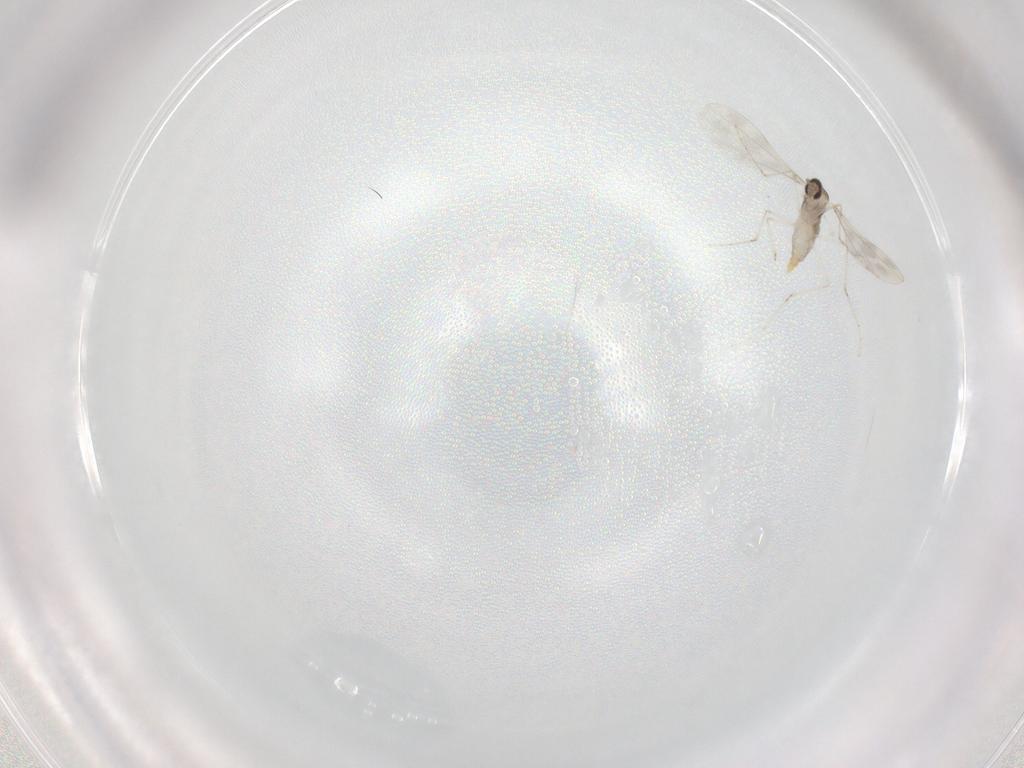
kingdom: Animalia
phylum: Arthropoda
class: Insecta
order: Diptera
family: Cecidomyiidae
